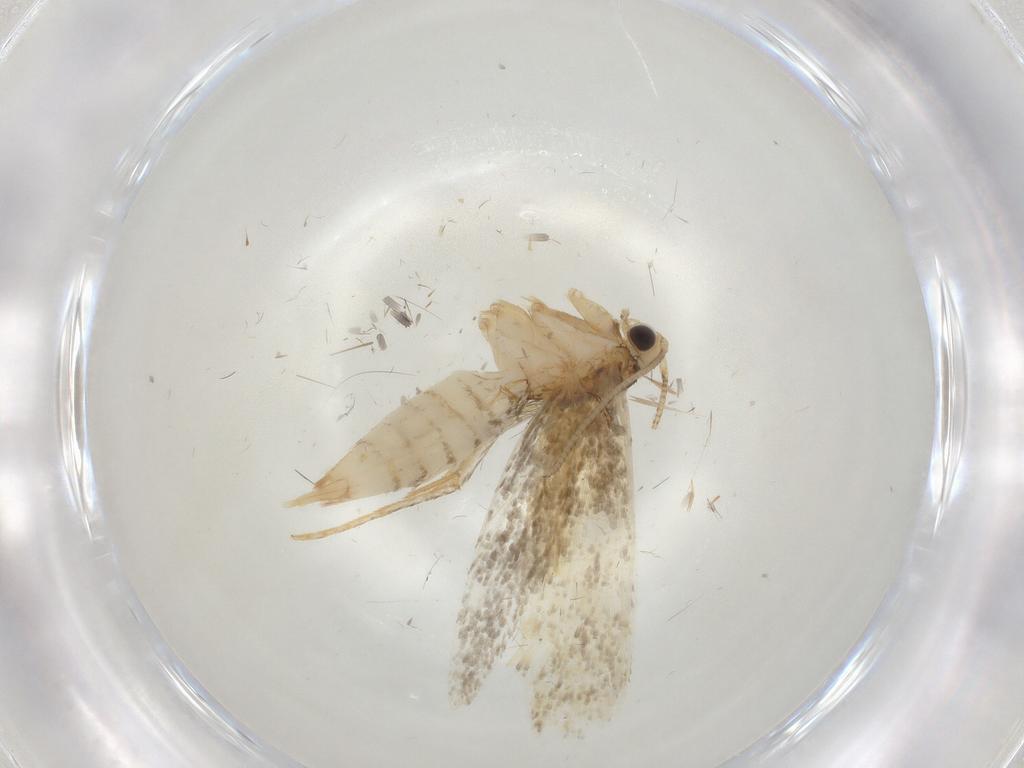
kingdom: Animalia
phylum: Arthropoda
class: Insecta
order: Lepidoptera
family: Tineidae
